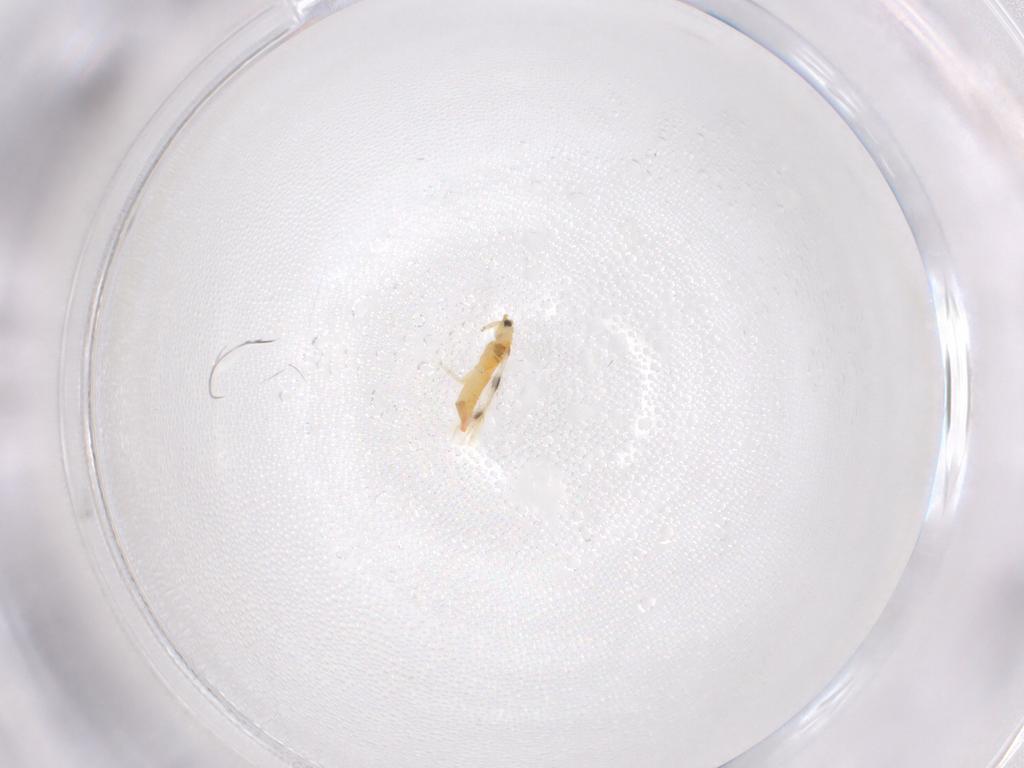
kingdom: Animalia
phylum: Arthropoda
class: Insecta
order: Thysanoptera
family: Thripidae
